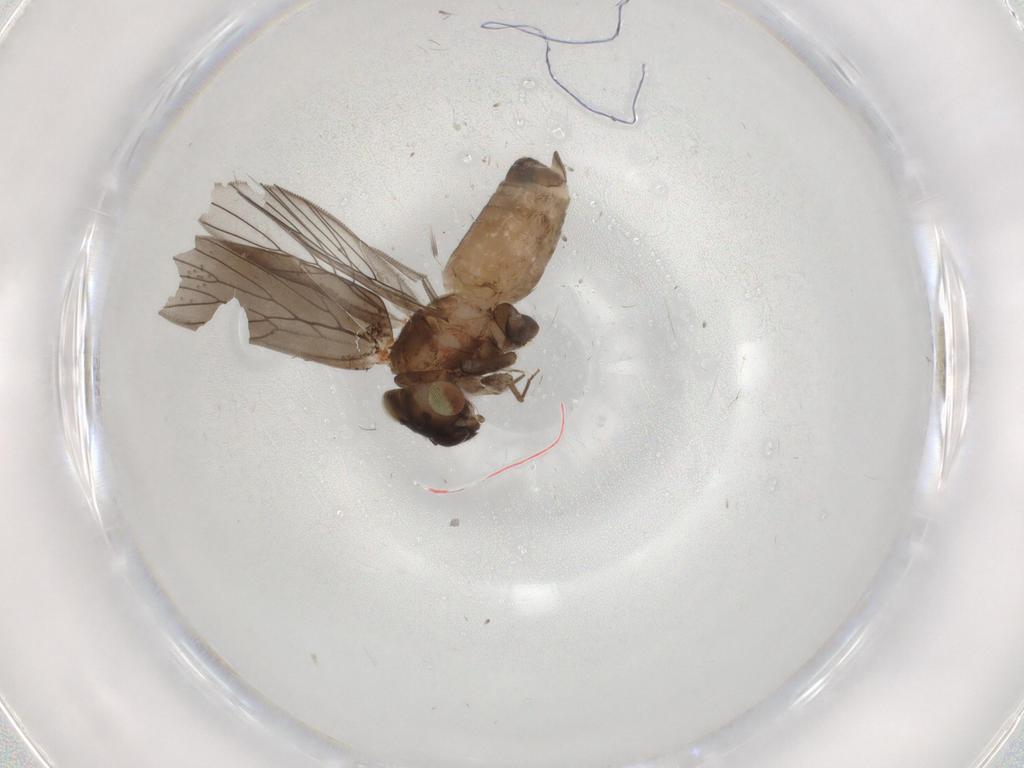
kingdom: Animalia
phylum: Arthropoda
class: Insecta
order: Psocodea
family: Lepidopsocidae
